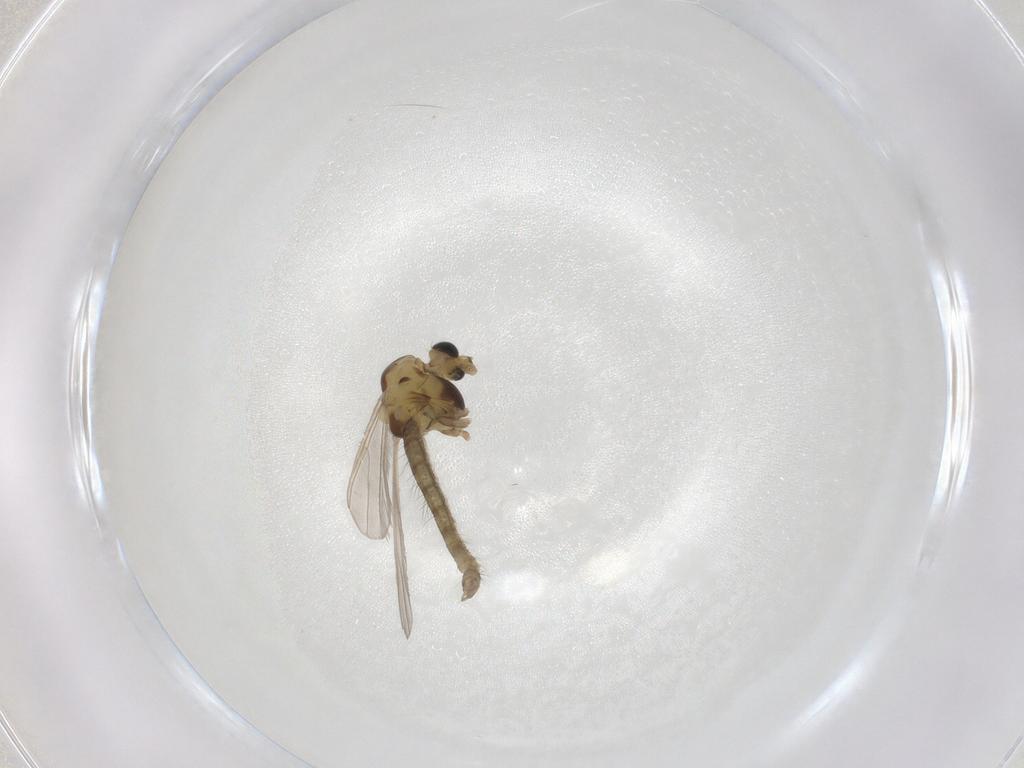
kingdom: Animalia
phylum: Arthropoda
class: Insecta
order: Diptera
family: Chironomidae
